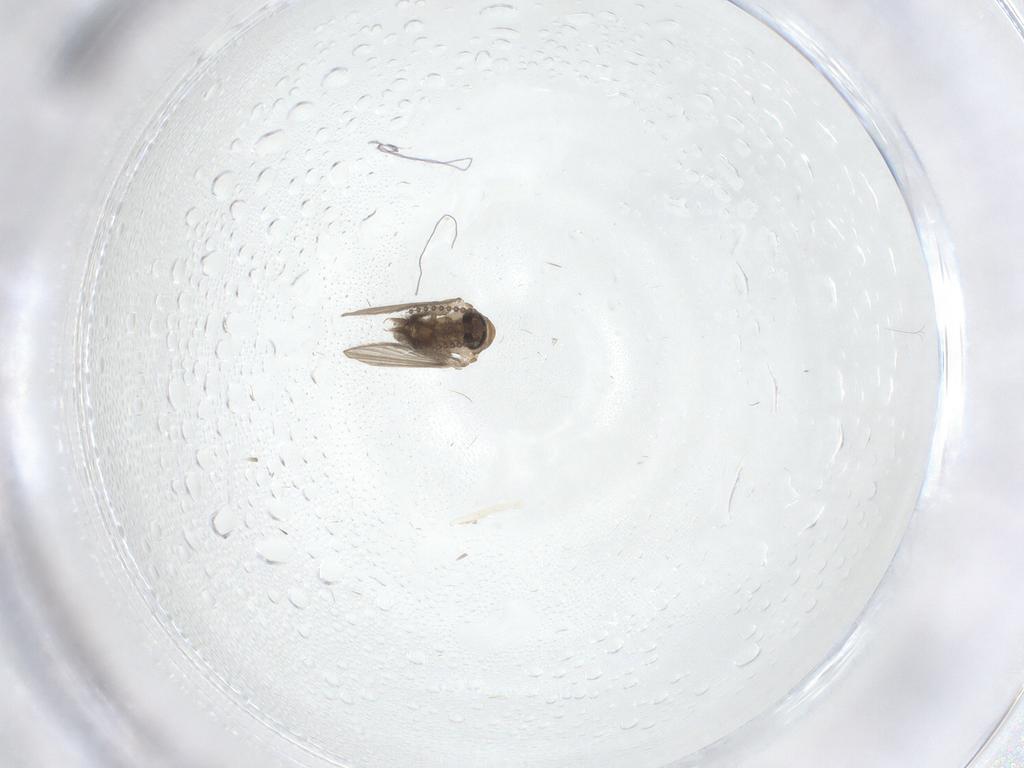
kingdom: Animalia
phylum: Arthropoda
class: Insecta
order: Diptera
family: Psychodidae
